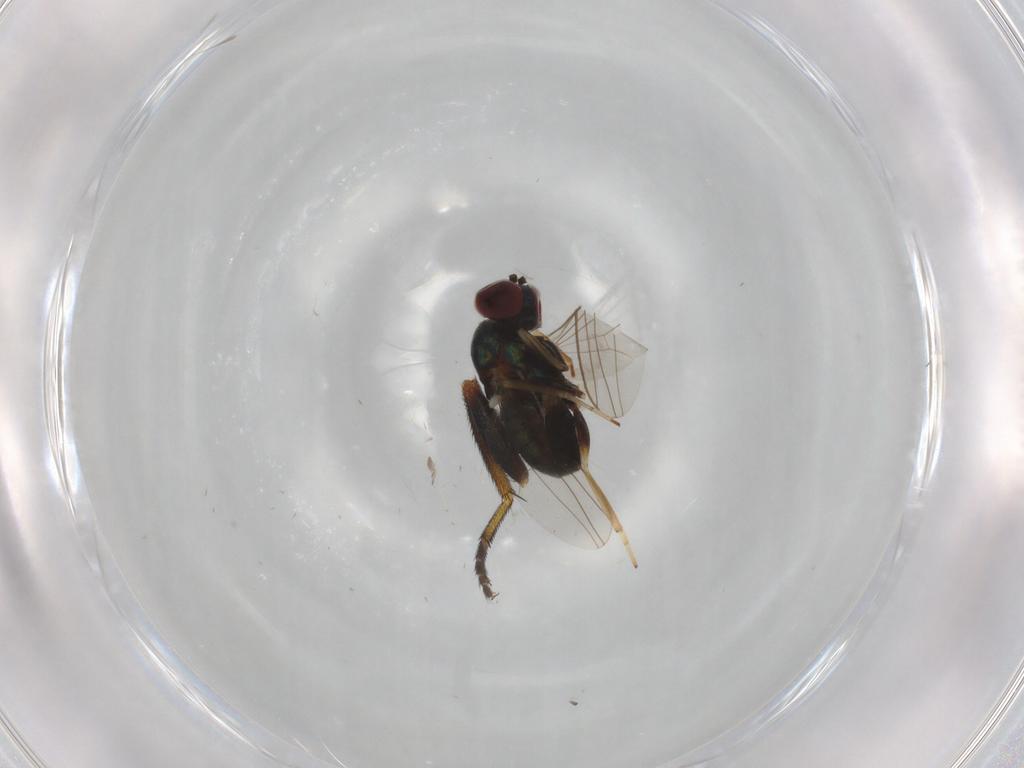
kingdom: Animalia
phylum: Arthropoda
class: Insecta
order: Diptera
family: Dolichopodidae
